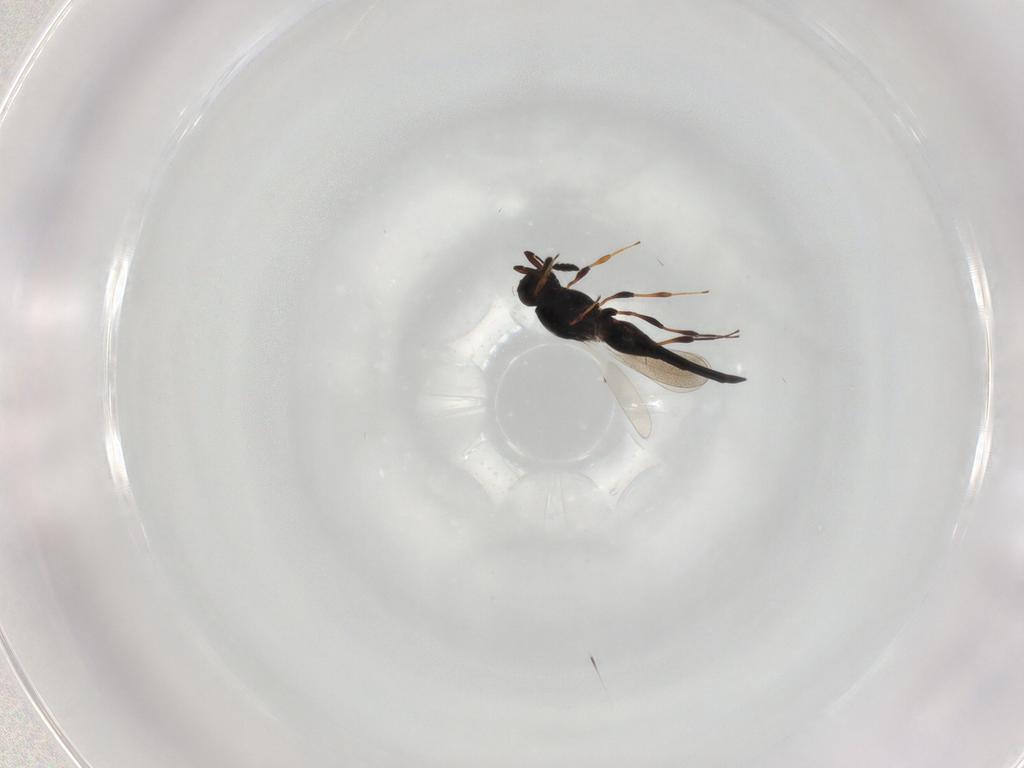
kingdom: Animalia
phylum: Arthropoda
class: Insecta
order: Hymenoptera
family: Platygastridae
